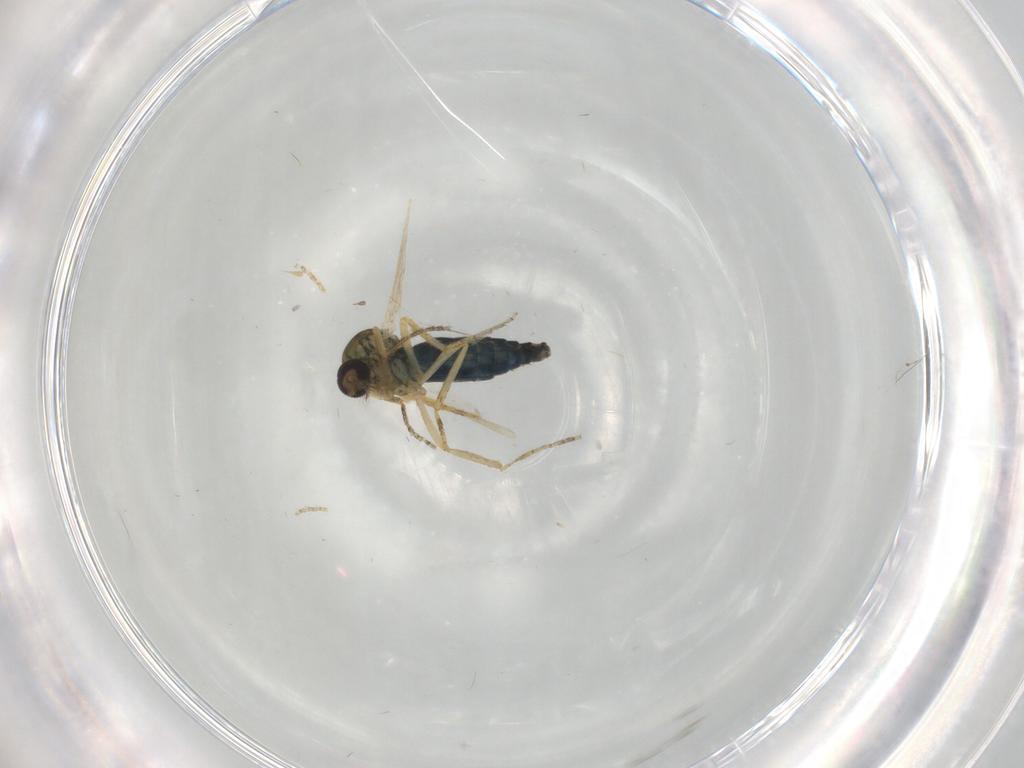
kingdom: Animalia
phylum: Arthropoda
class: Insecta
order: Diptera
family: Ceratopogonidae
